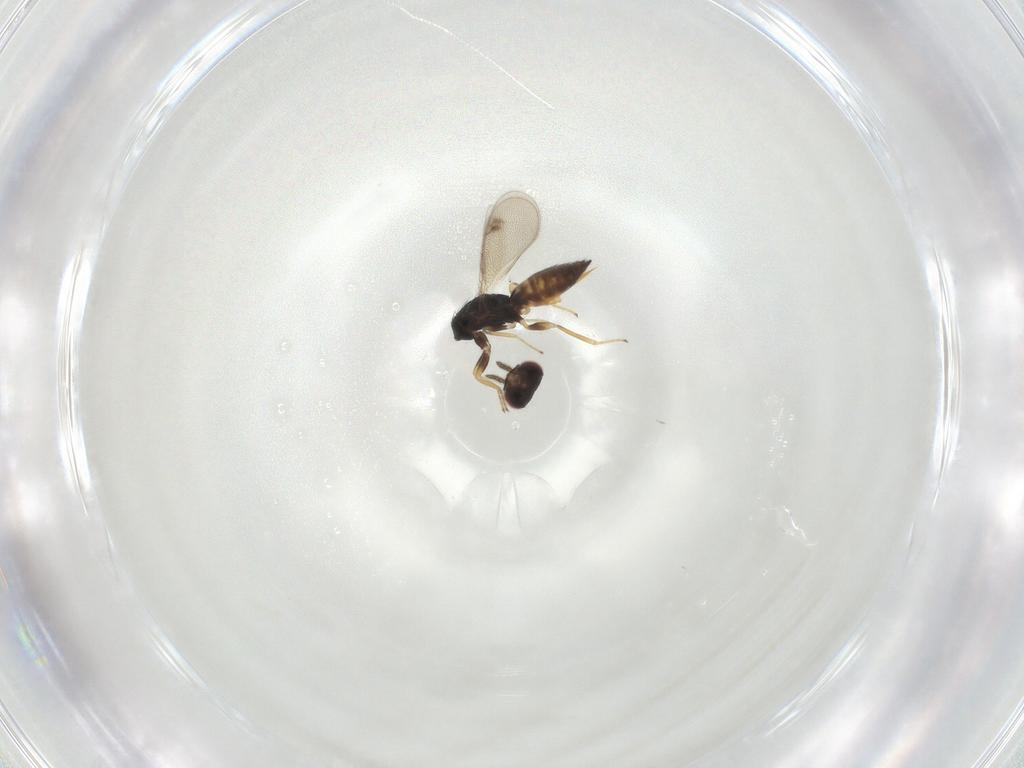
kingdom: Animalia
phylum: Arthropoda
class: Insecta
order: Hymenoptera
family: Eulophidae
